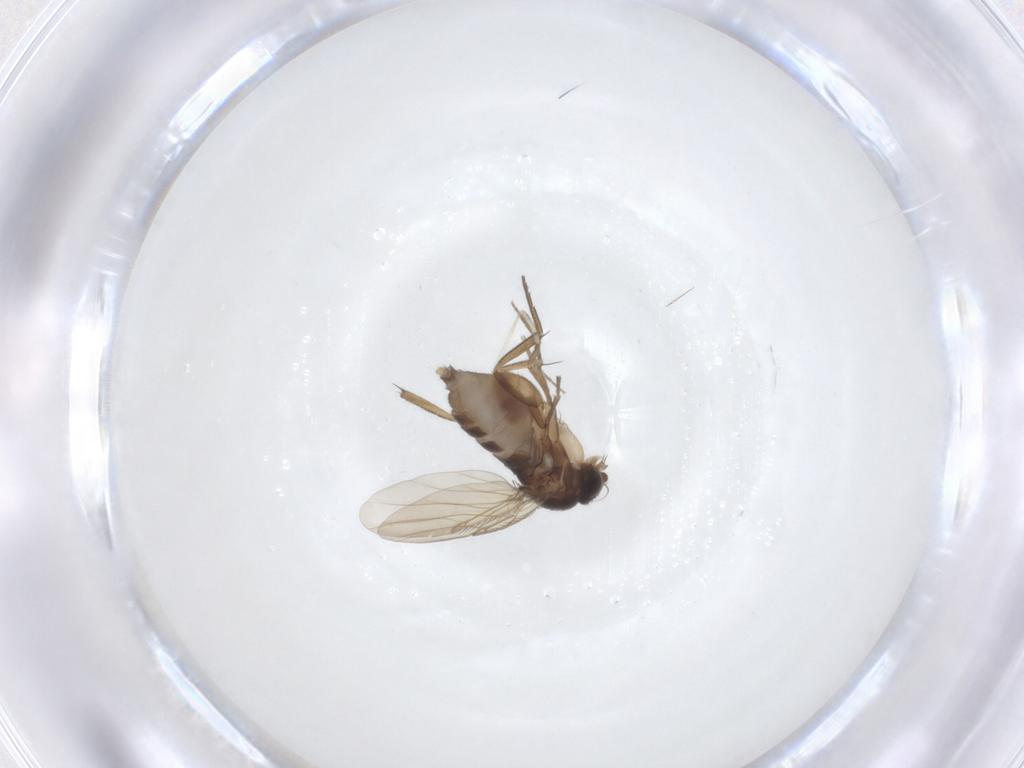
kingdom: Animalia
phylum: Arthropoda
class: Insecta
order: Diptera
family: Phoridae
